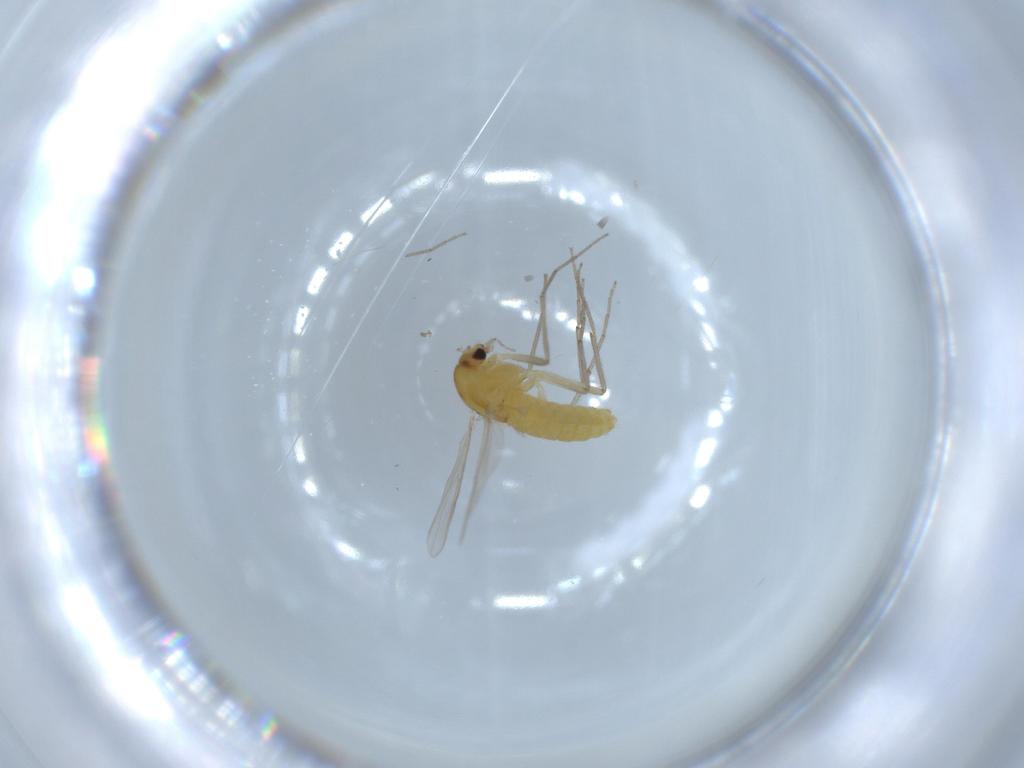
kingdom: Animalia
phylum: Arthropoda
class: Insecta
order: Diptera
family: Chironomidae
